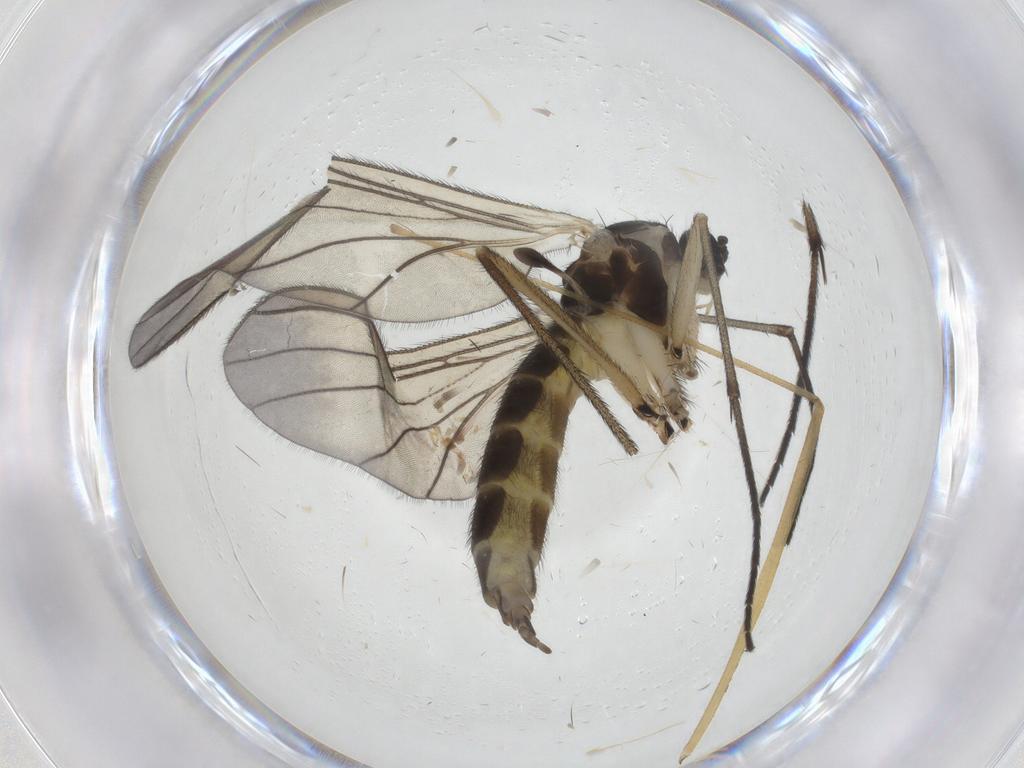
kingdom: Animalia
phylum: Arthropoda
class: Insecta
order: Diptera
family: Sciaridae
